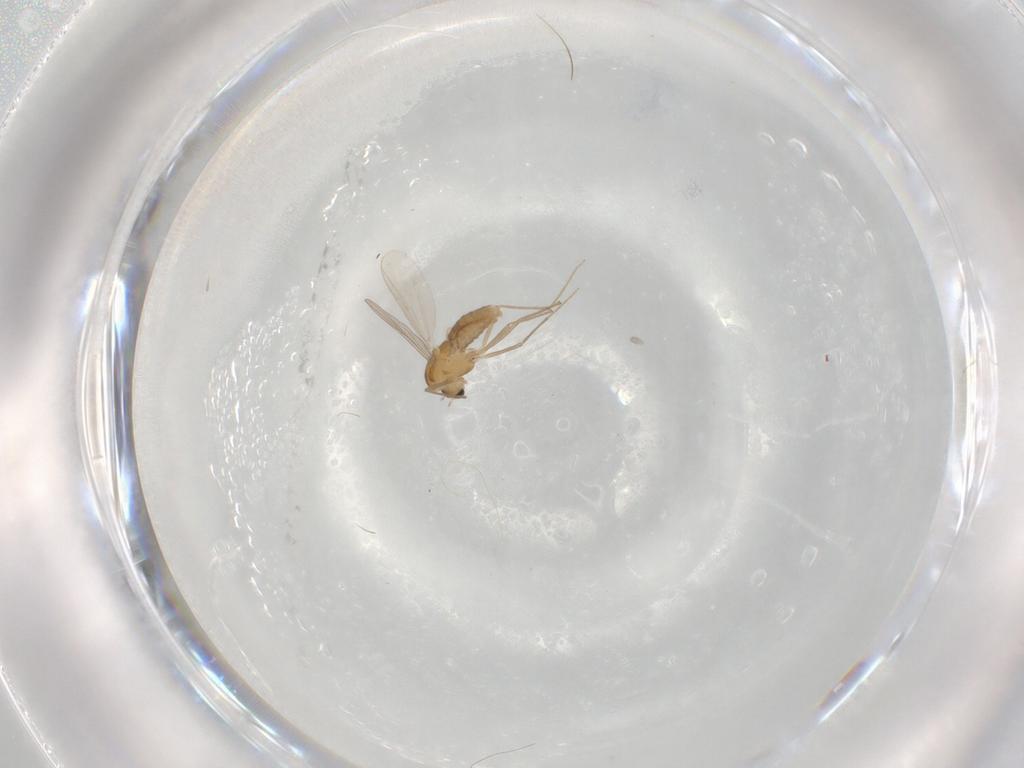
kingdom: Animalia
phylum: Arthropoda
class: Insecta
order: Diptera
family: Chironomidae
